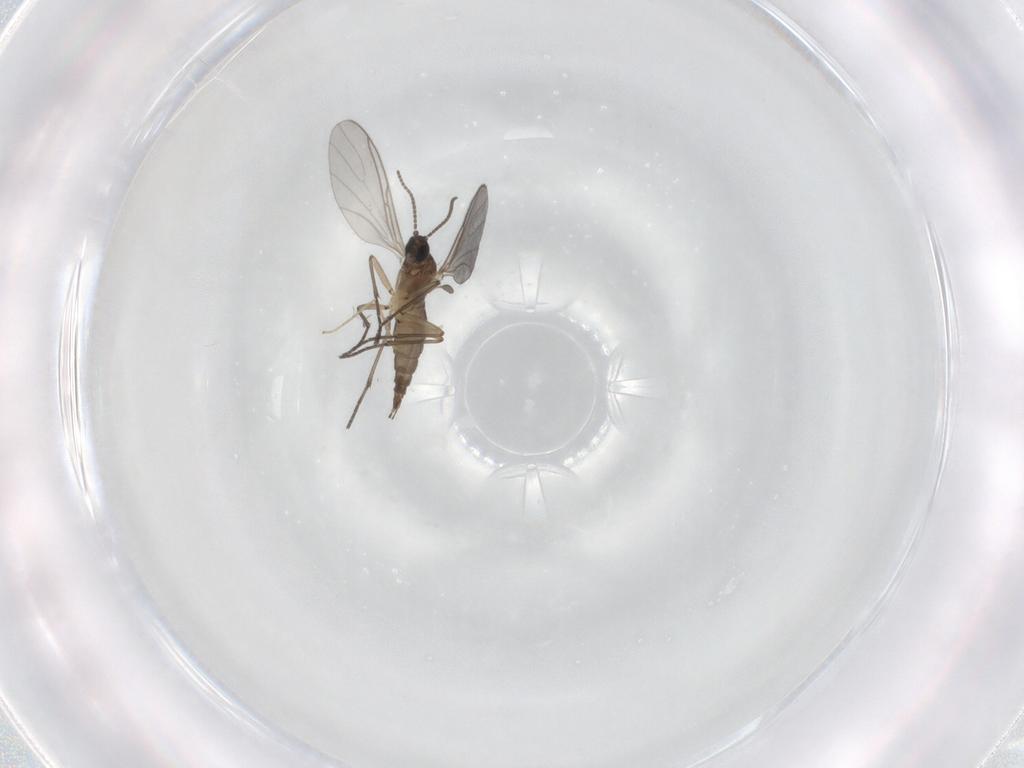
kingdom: Animalia
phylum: Arthropoda
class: Insecta
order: Diptera
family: Sciaridae
